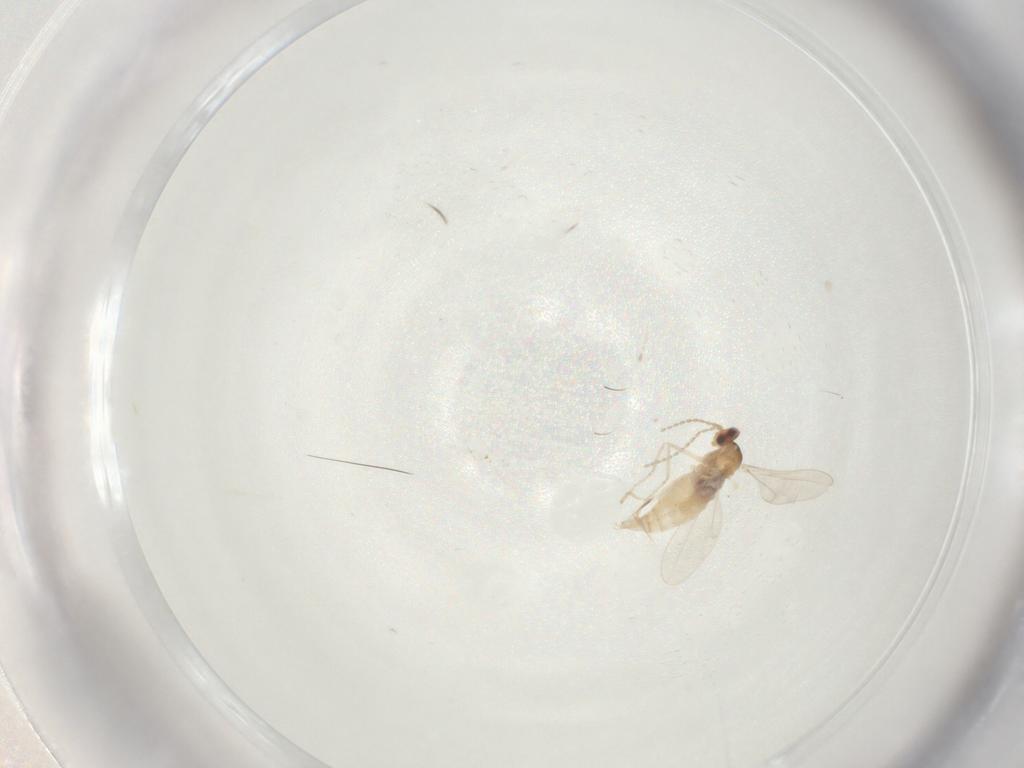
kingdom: Animalia
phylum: Arthropoda
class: Insecta
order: Diptera
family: Cecidomyiidae
